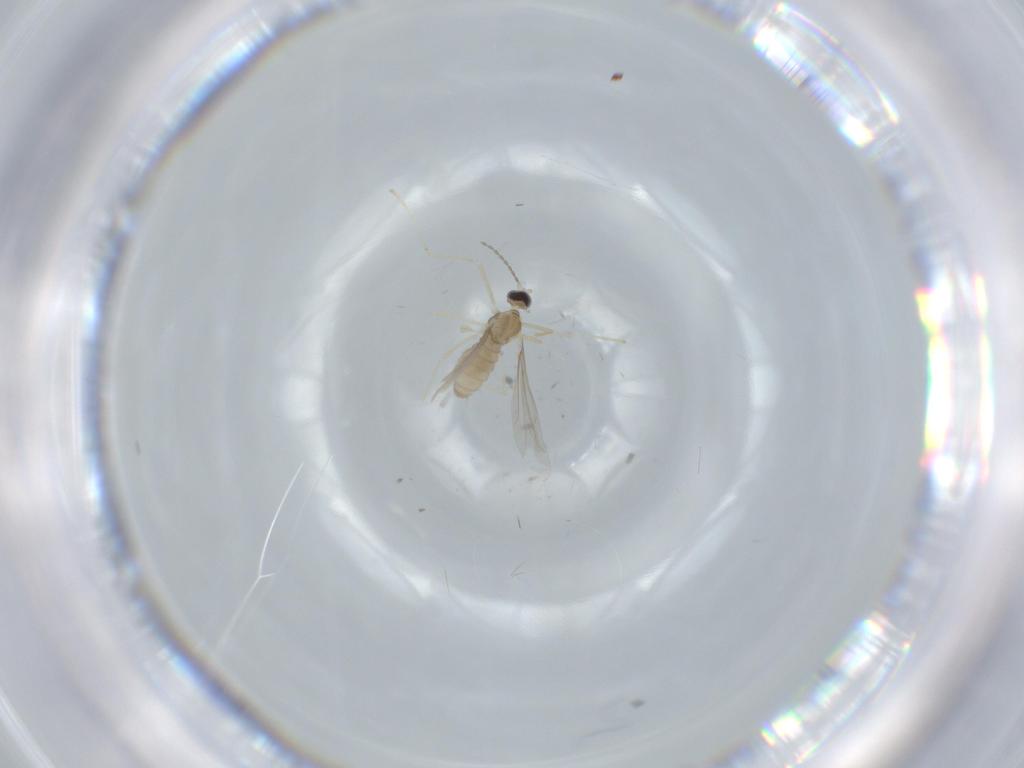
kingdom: Animalia
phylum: Arthropoda
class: Insecta
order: Diptera
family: Cecidomyiidae
